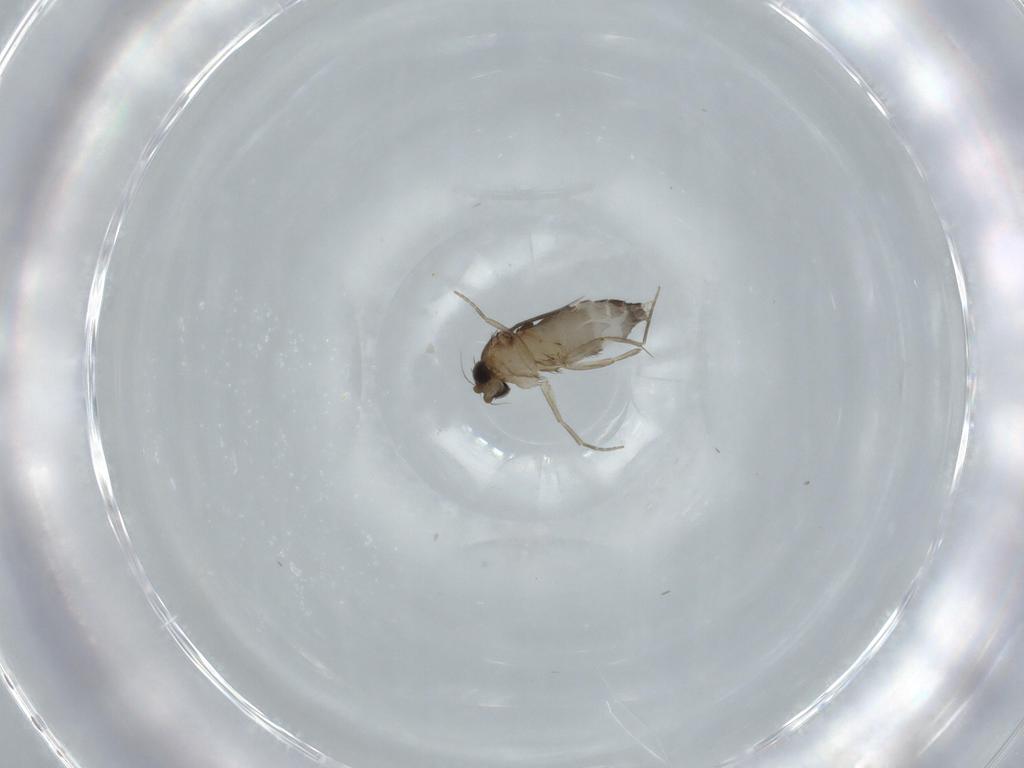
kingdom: Animalia
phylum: Arthropoda
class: Insecta
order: Diptera
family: Phoridae
